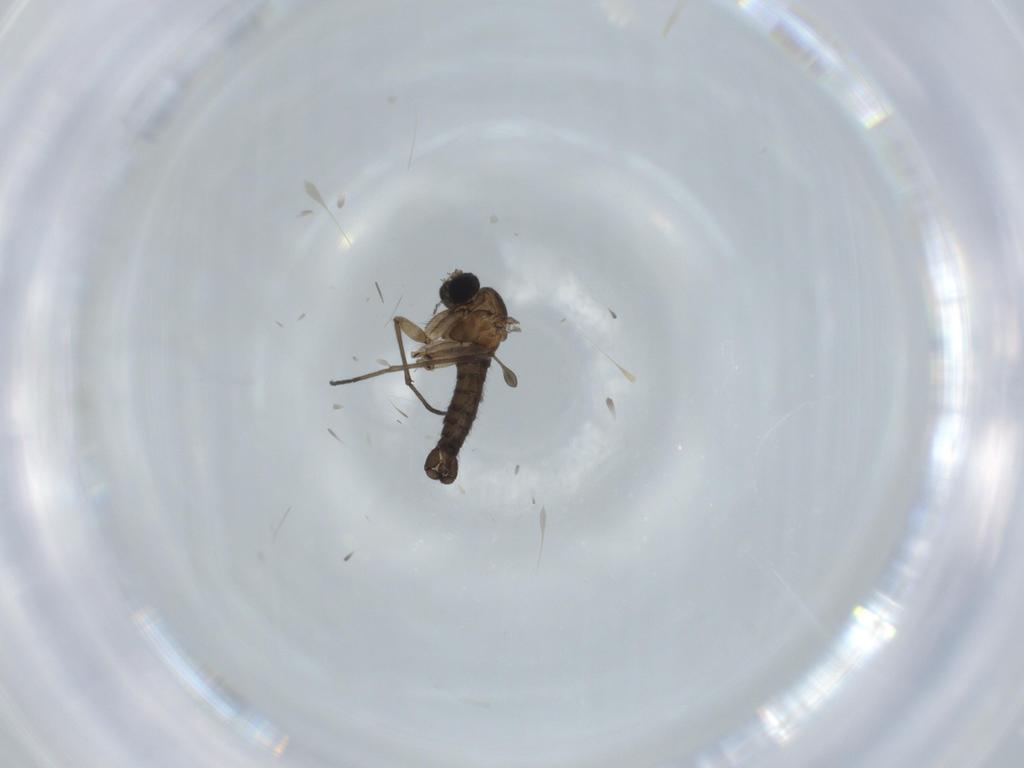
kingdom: Animalia
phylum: Arthropoda
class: Insecta
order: Diptera
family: Sciaridae
